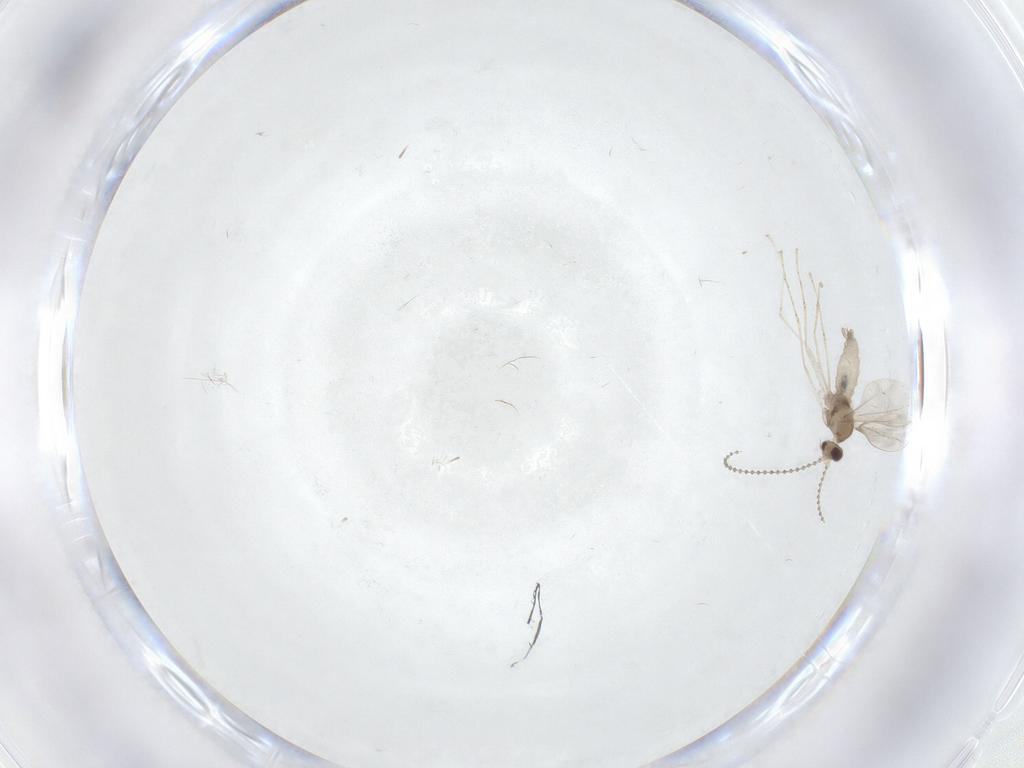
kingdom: Animalia
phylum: Arthropoda
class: Insecta
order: Diptera
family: Cecidomyiidae
